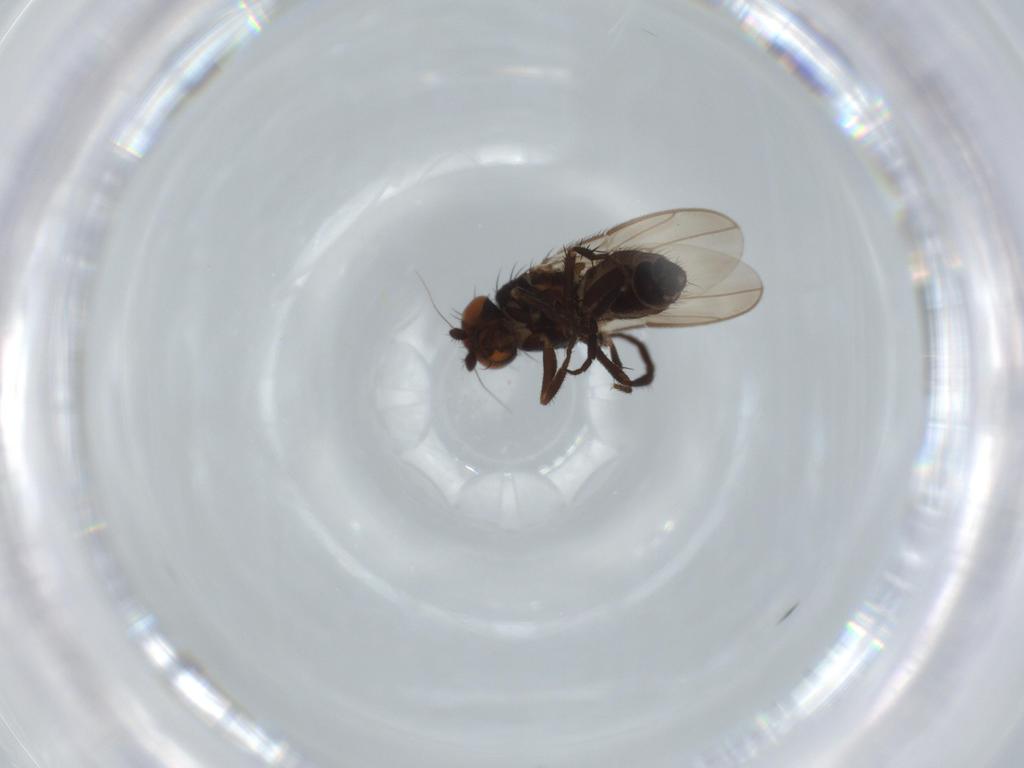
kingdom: Animalia
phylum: Arthropoda
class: Insecta
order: Diptera
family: Sphaeroceridae
